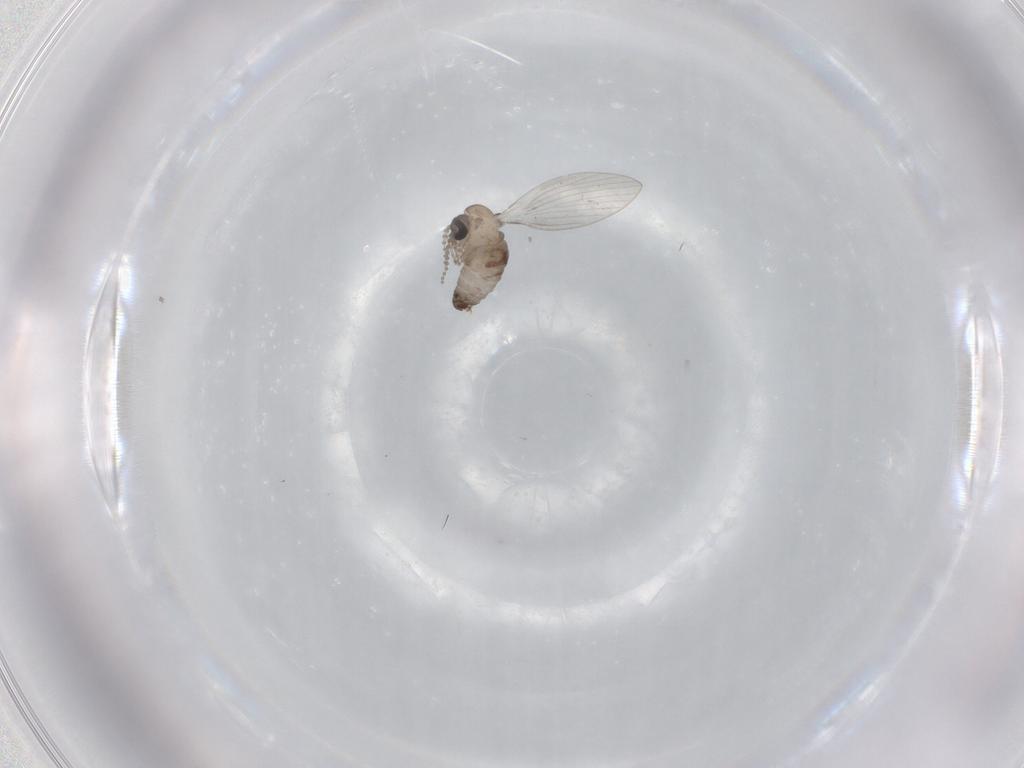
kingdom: Animalia
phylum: Arthropoda
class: Insecta
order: Diptera
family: Psychodidae
